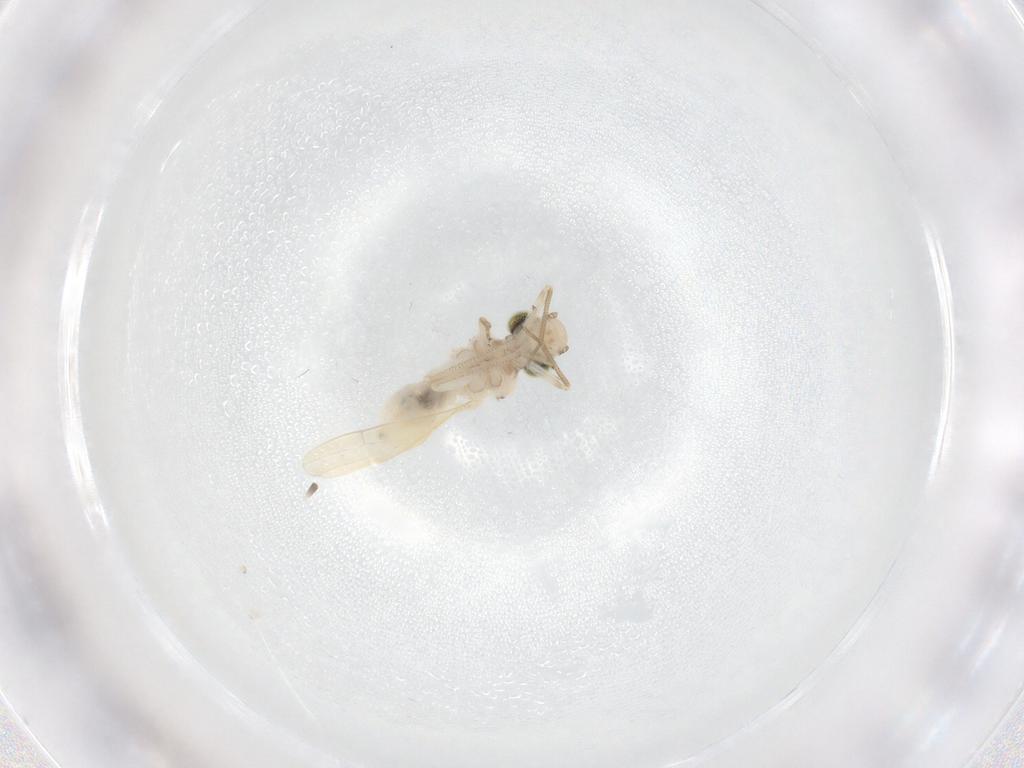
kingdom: Animalia
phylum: Arthropoda
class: Insecta
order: Psocodea
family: Caeciliusidae
